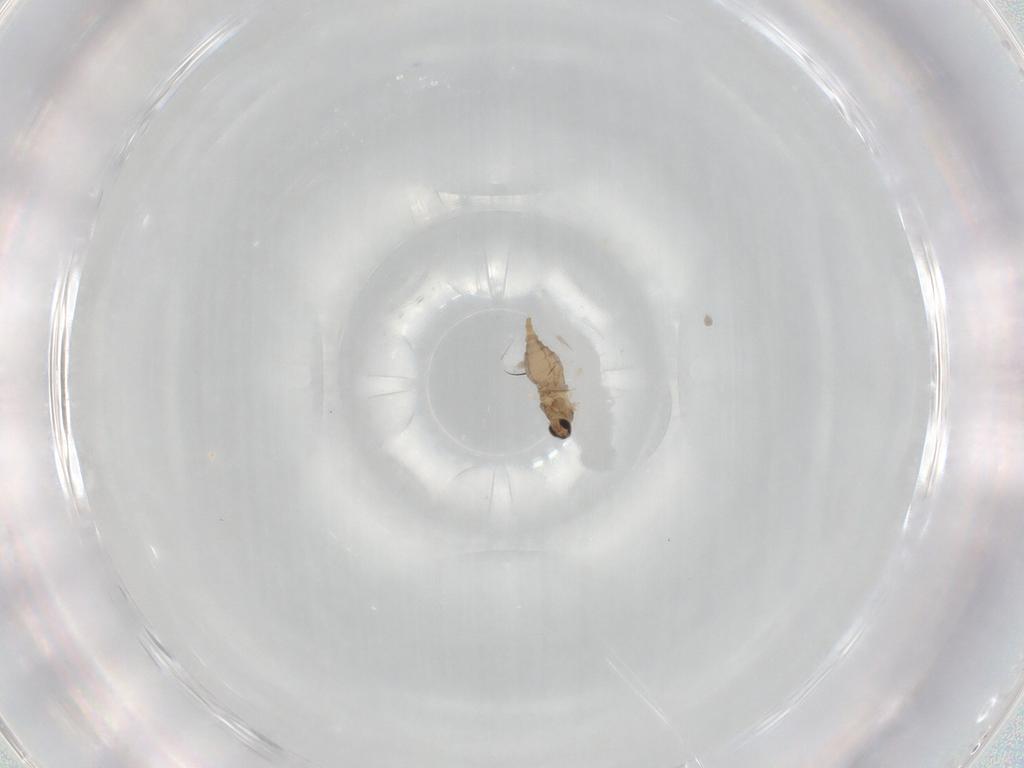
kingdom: Animalia
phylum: Arthropoda
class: Insecta
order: Diptera
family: Cecidomyiidae
